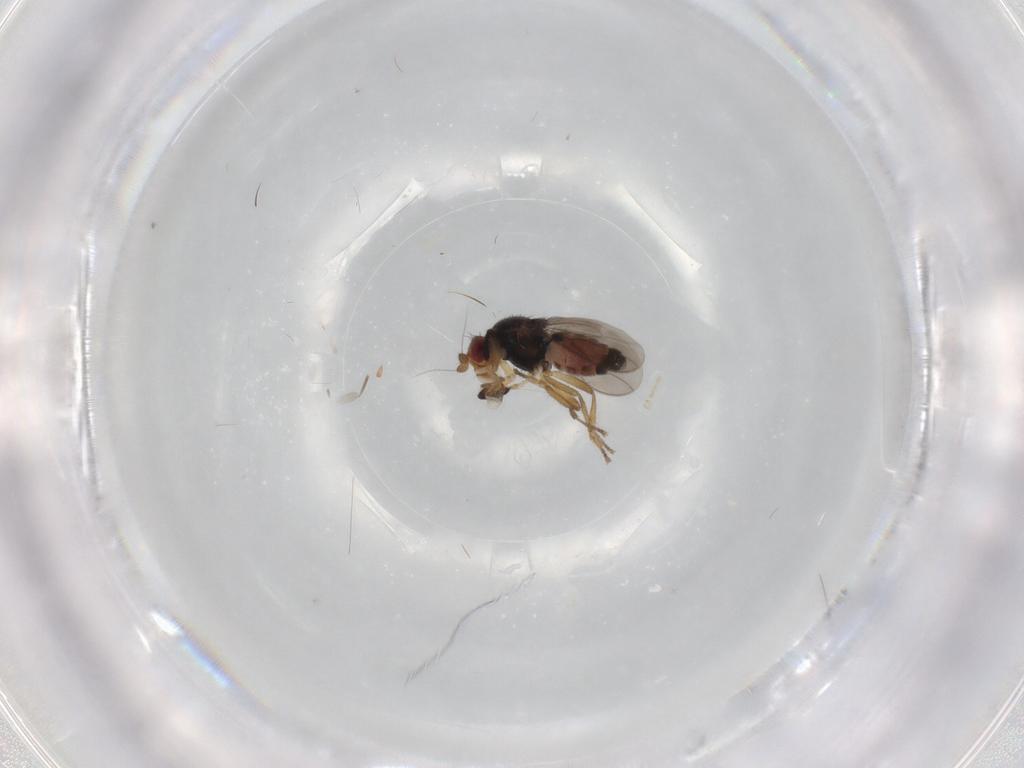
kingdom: Animalia
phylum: Arthropoda
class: Insecta
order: Diptera
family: Sphaeroceridae
